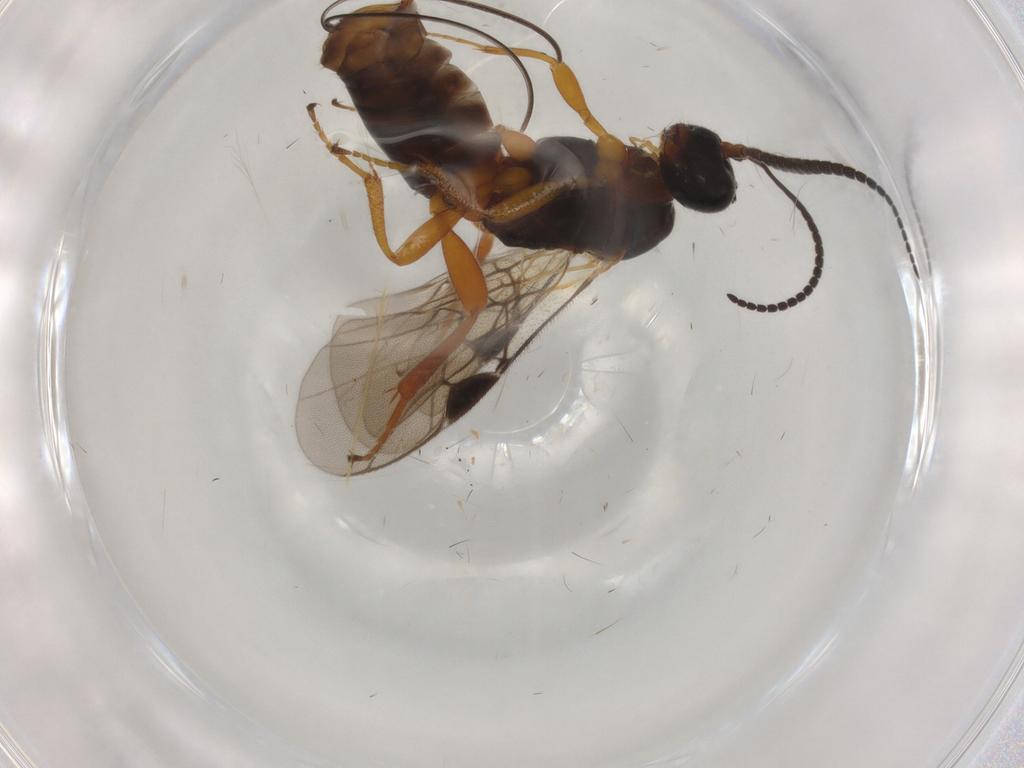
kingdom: Animalia
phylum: Arthropoda
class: Insecta
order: Hymenoptera
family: Braconidae
